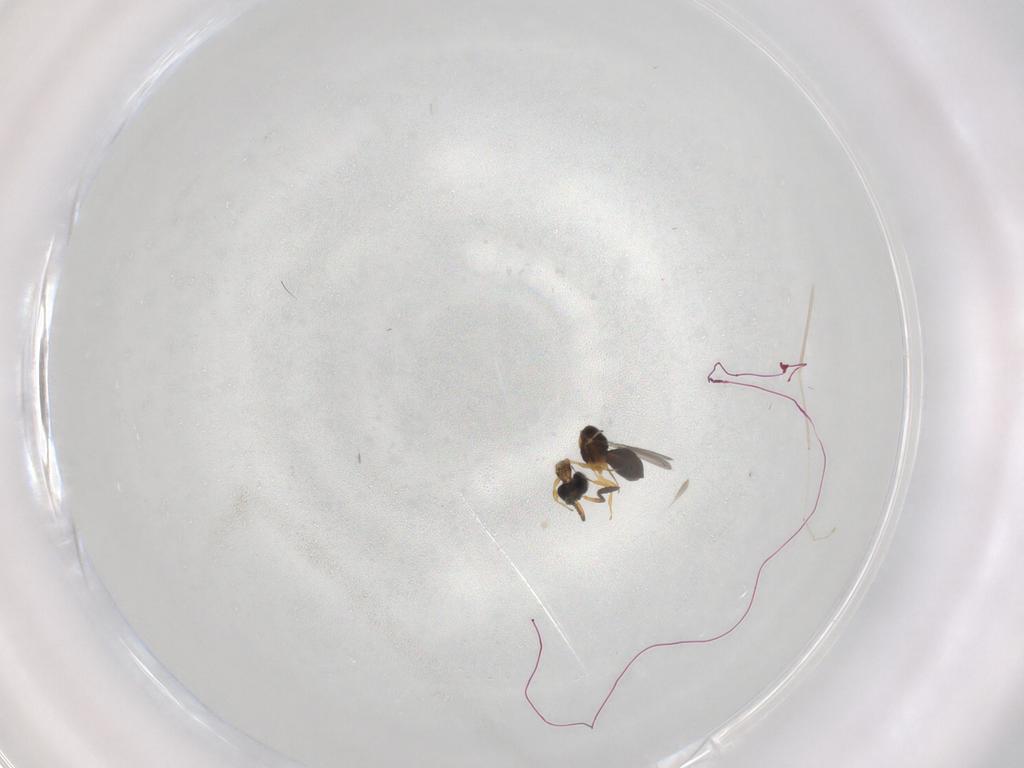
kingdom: Animalia
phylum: Arthropoda
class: Insecta
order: Hymenoptera
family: Scelionidae
